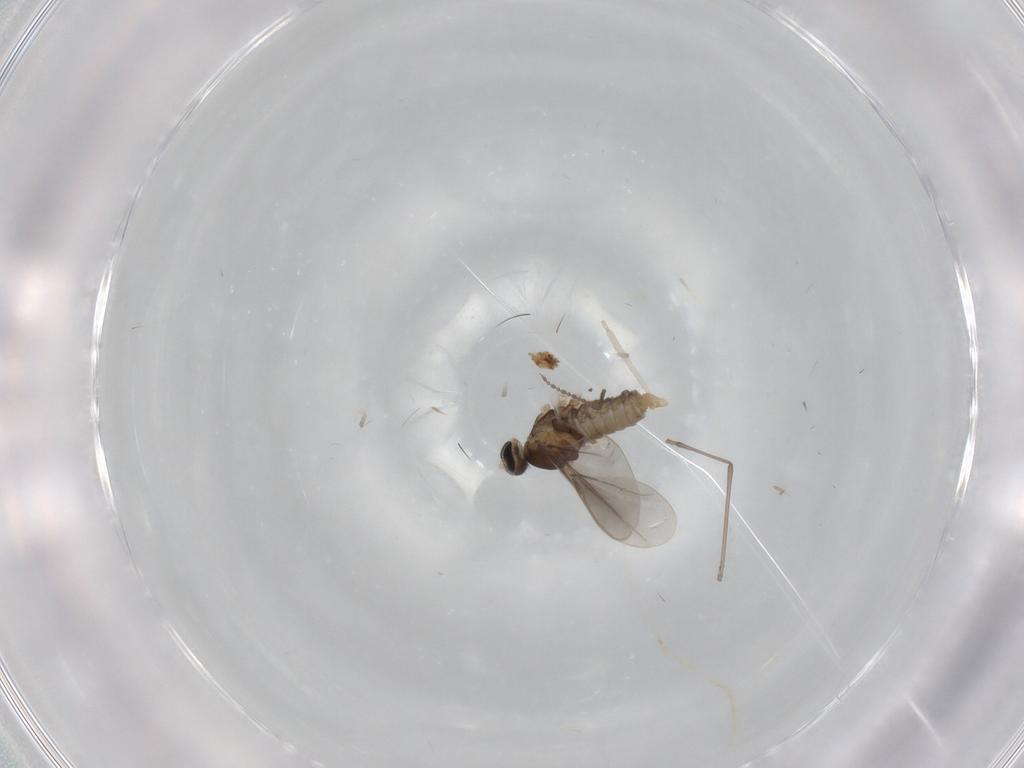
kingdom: Animalia
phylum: Arthropoda
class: Insecta
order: Diptera
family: Cecidomyiidae
